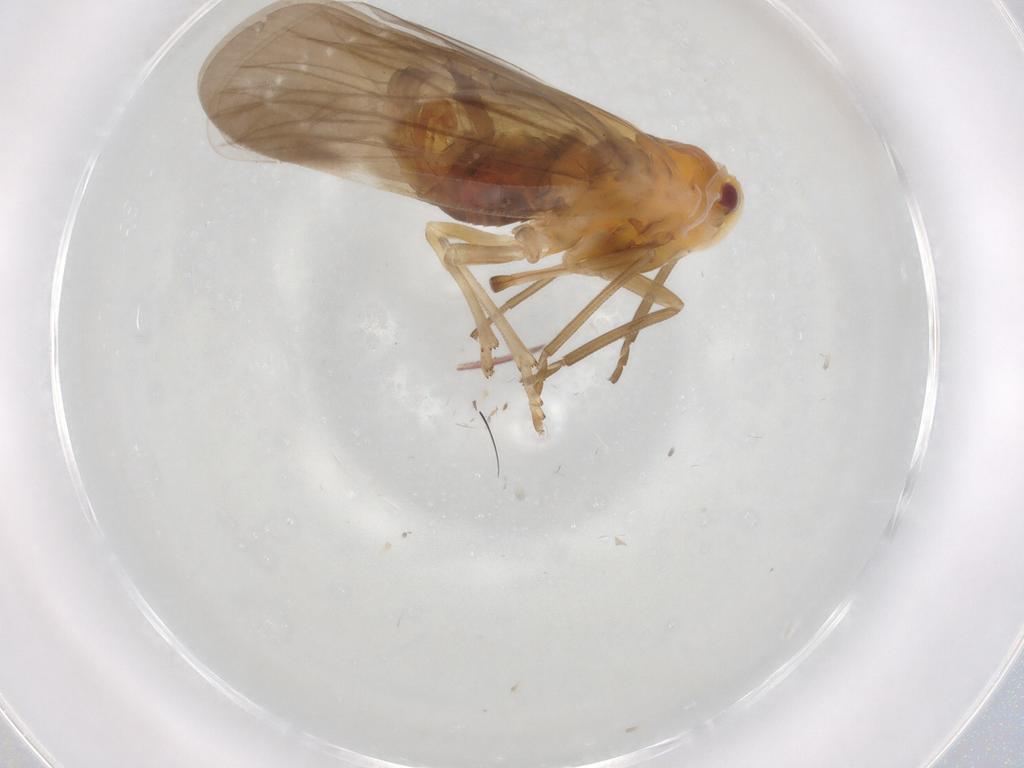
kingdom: Animalia
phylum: Arthropoda
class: Insecta
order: Hemiptera
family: Derbidae
